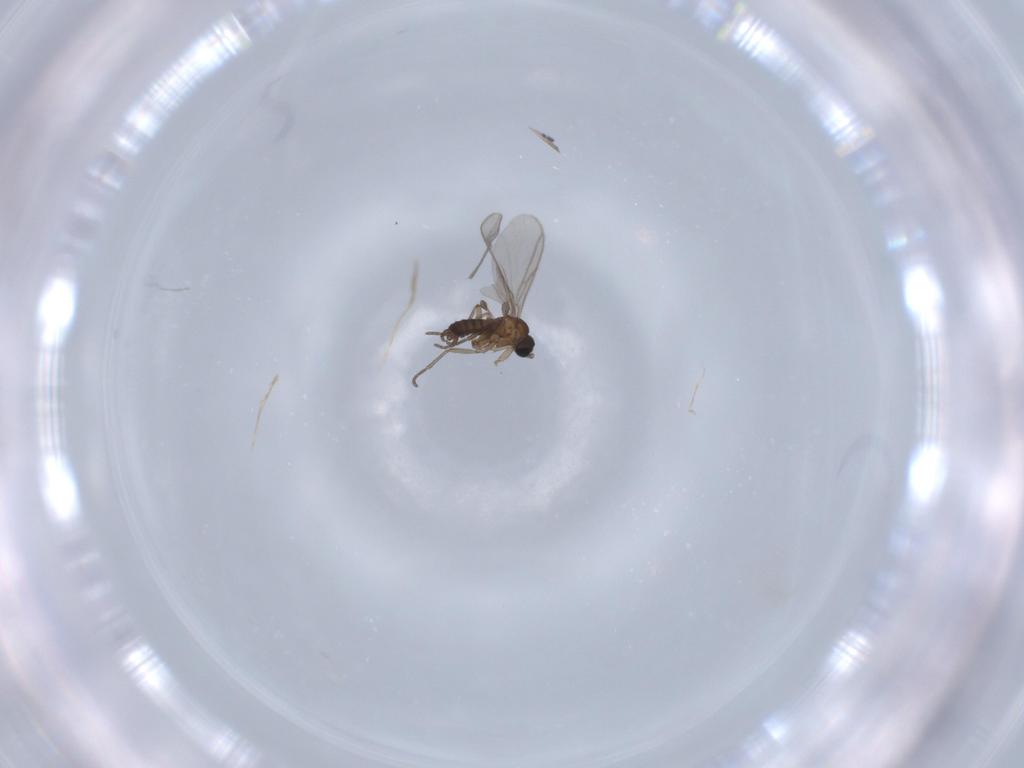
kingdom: Animalia
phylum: Arthropoda
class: Insecta
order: Diptera
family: Sciaridae
